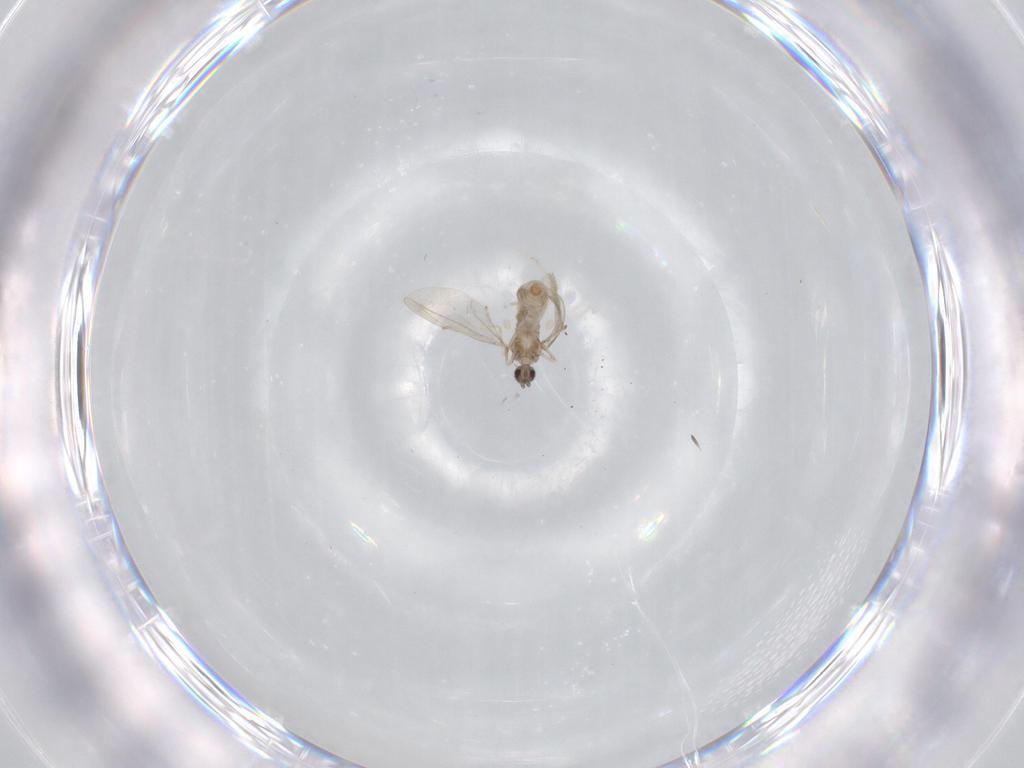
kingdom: Animalia
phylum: Arthropoda
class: Insecta
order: Diptera
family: Cecidomyiidae
